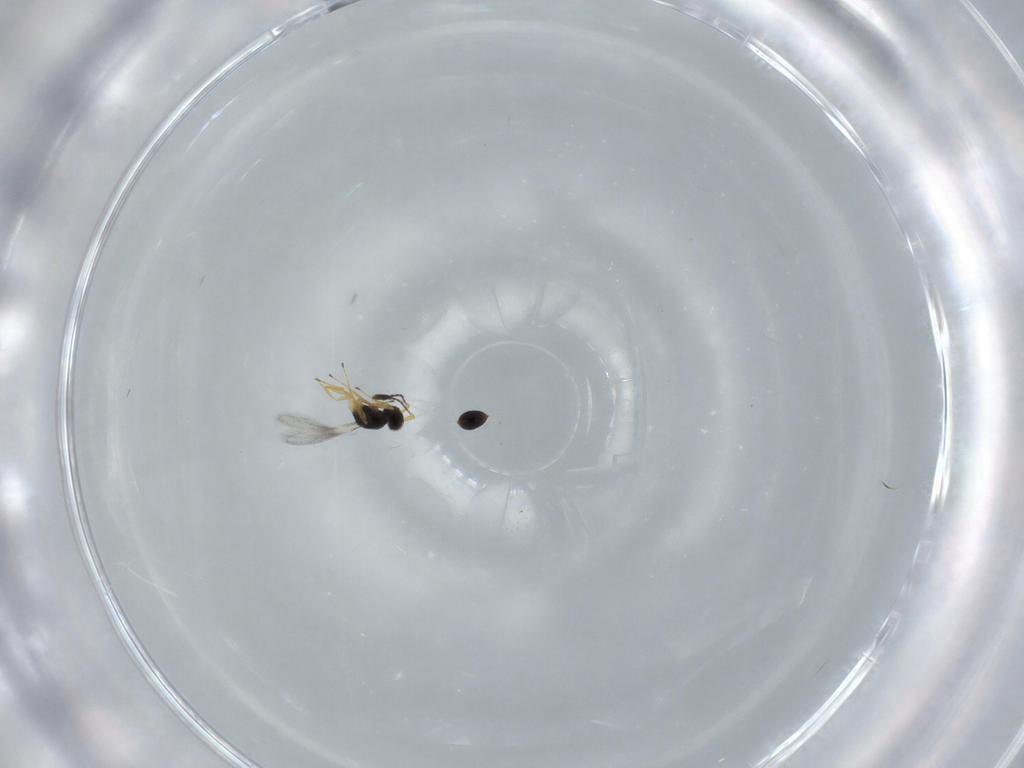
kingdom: Animalia
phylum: Arthropoda
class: Insecta
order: Hymenoptera
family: Mymaridae
